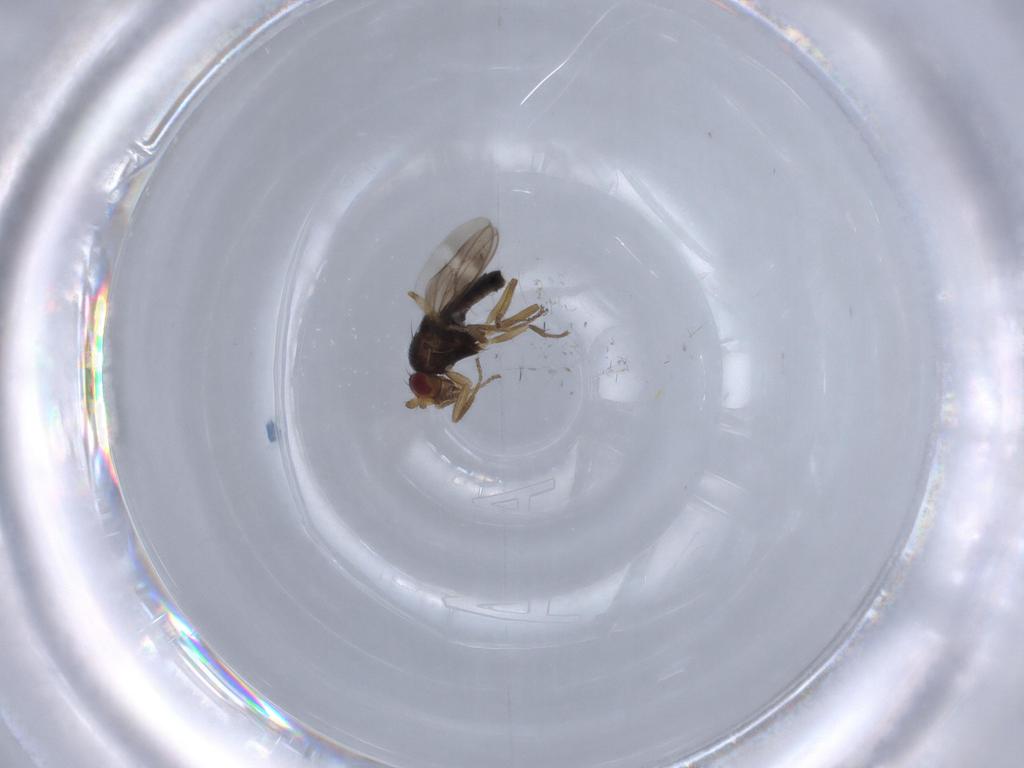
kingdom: Animalia
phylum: Arthropoda
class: Insecta
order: Diptera
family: Ceratopogonidae
